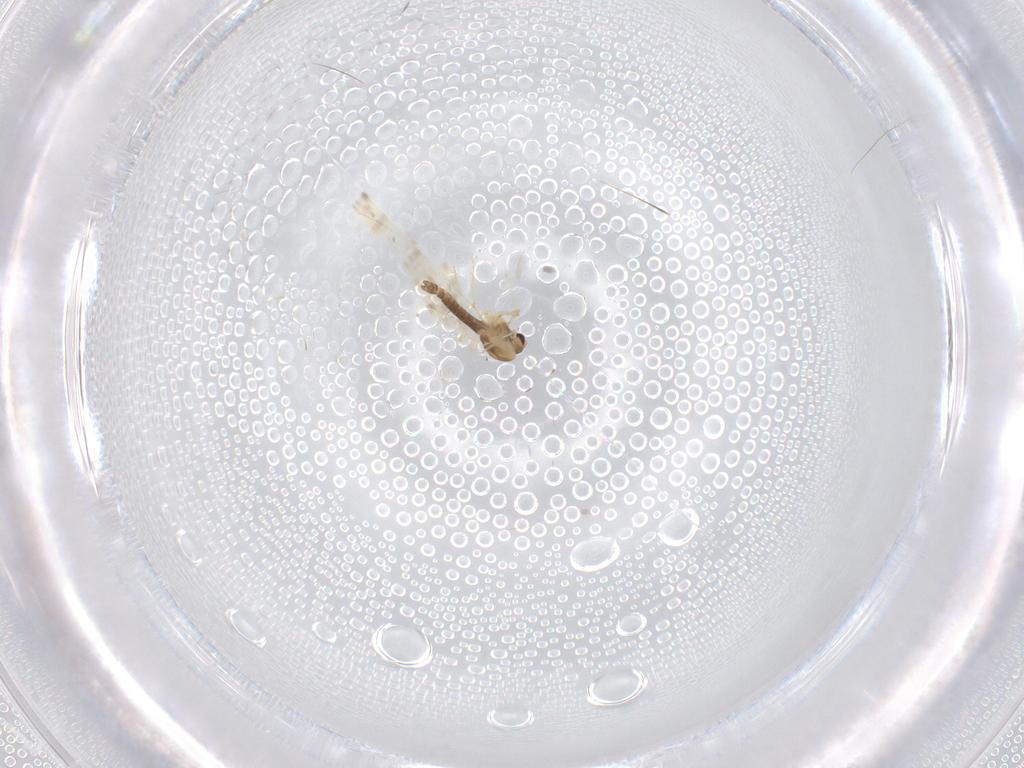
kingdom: Animalia
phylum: Arthropoda
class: Insecta
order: Diptera
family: Chironomidae
